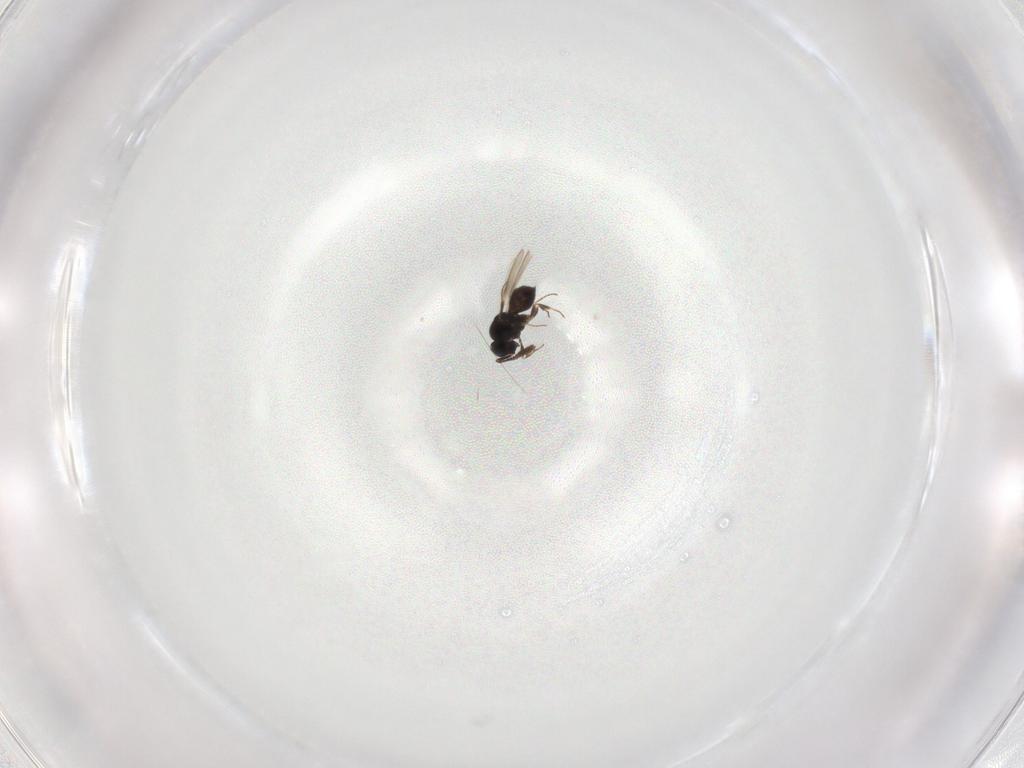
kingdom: Animalia
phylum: Arthropoda
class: Insecta
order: Hymenoptera
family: Scelionidae
